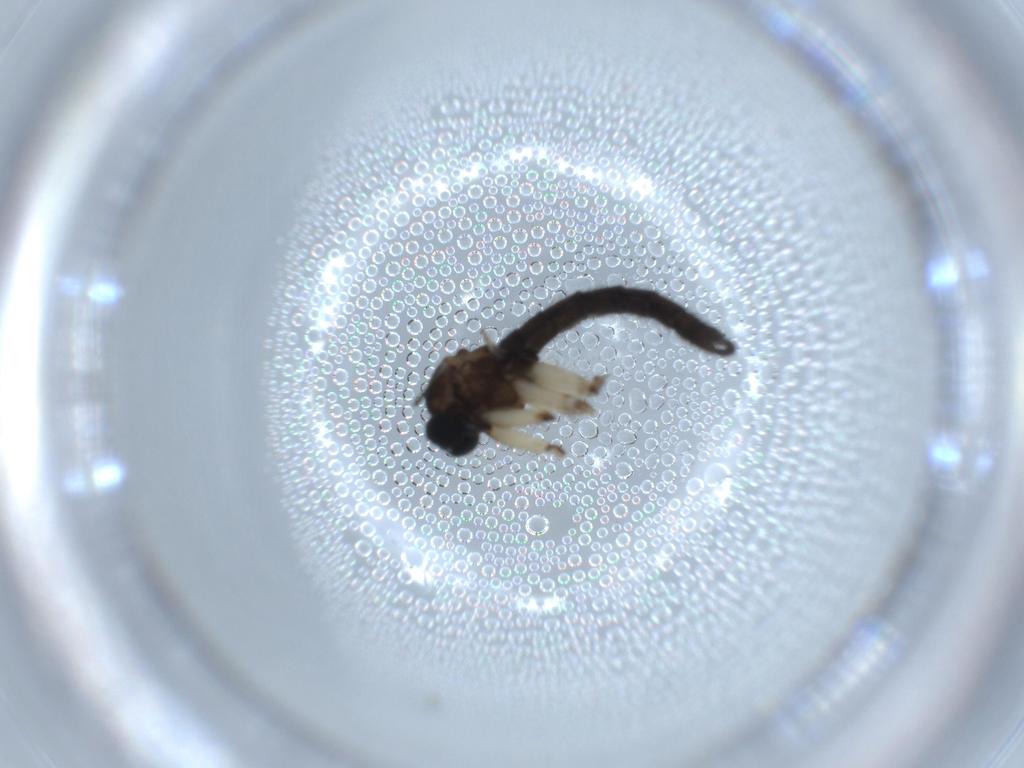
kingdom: Animalia
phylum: Arthropoda
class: Insecta
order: Diptera
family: Sciaridae
